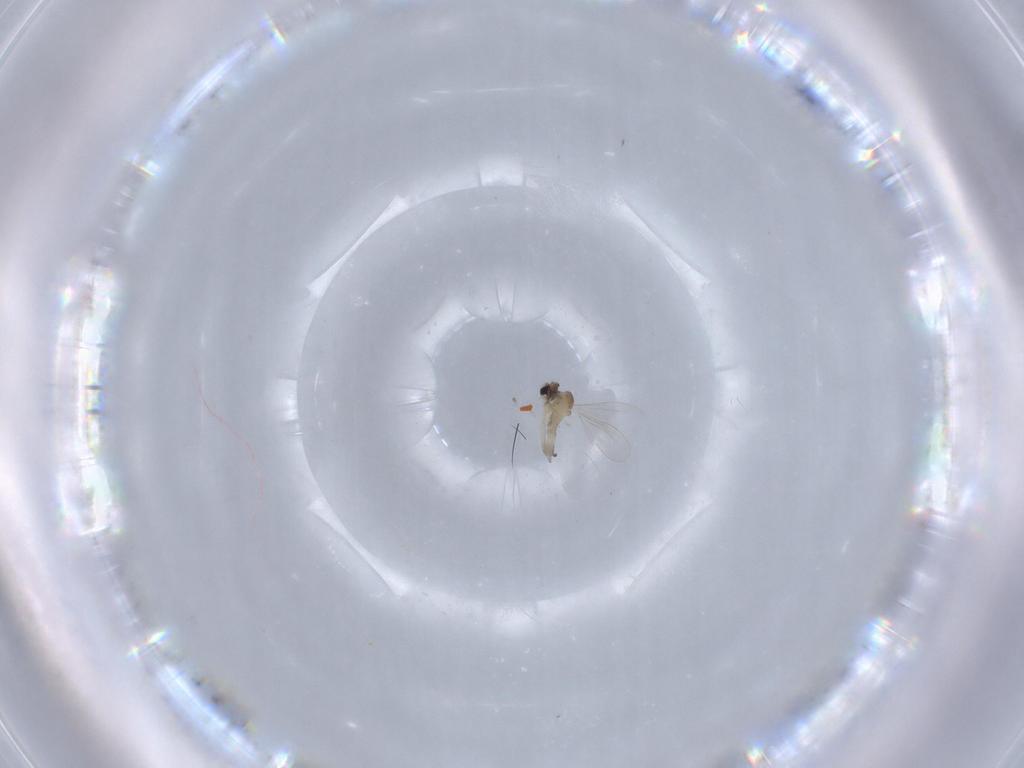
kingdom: Animalia
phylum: Arthropoda
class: Insecta
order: Diptera
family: Cecidomyiidae
